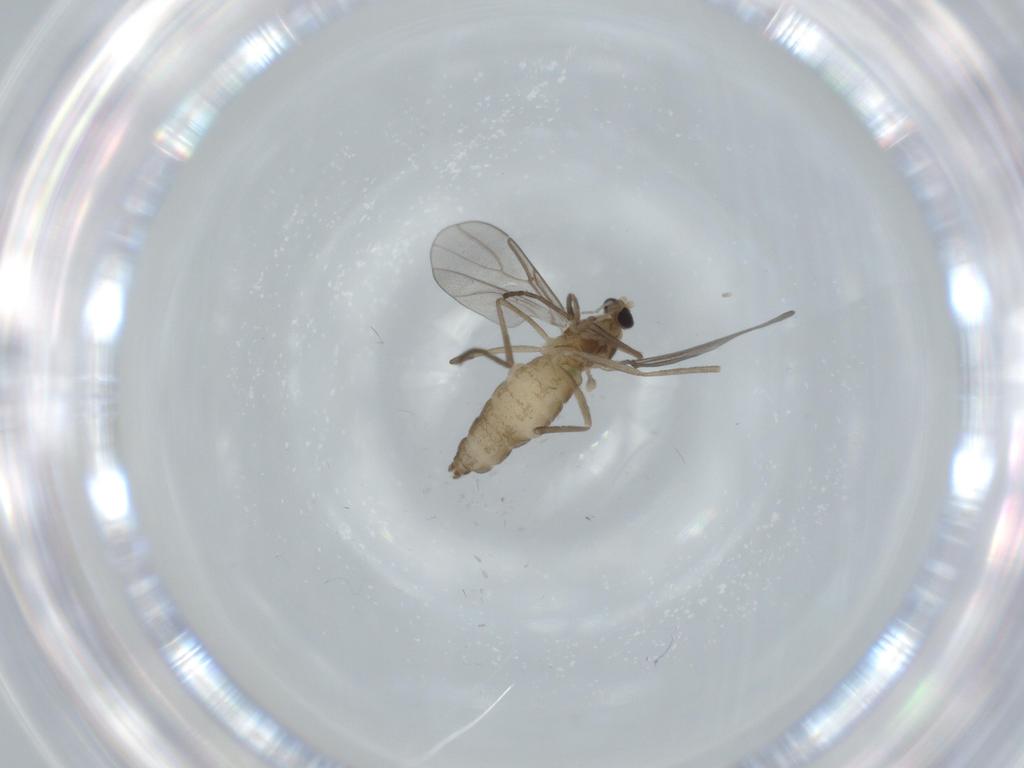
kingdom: Animalia
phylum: Arthropoda
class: Insecta
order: Diptera
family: Cecidomyiidae
